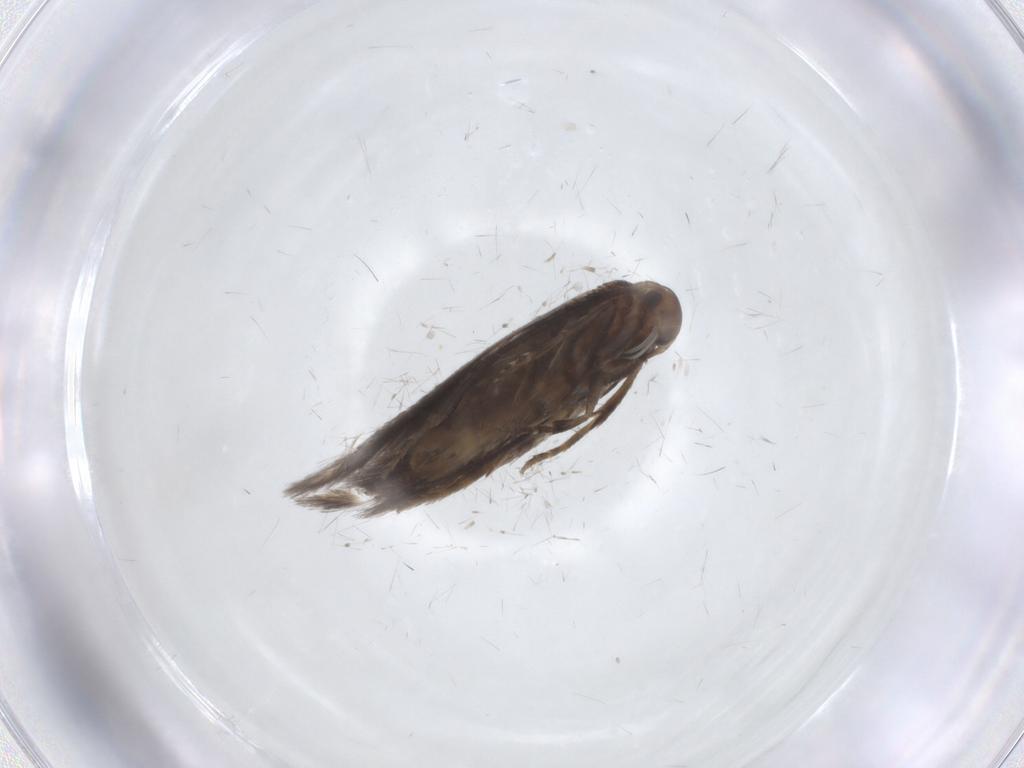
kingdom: Animalia
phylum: Arthropoda
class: Insecta
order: Lepidoptera
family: Elachistidae
